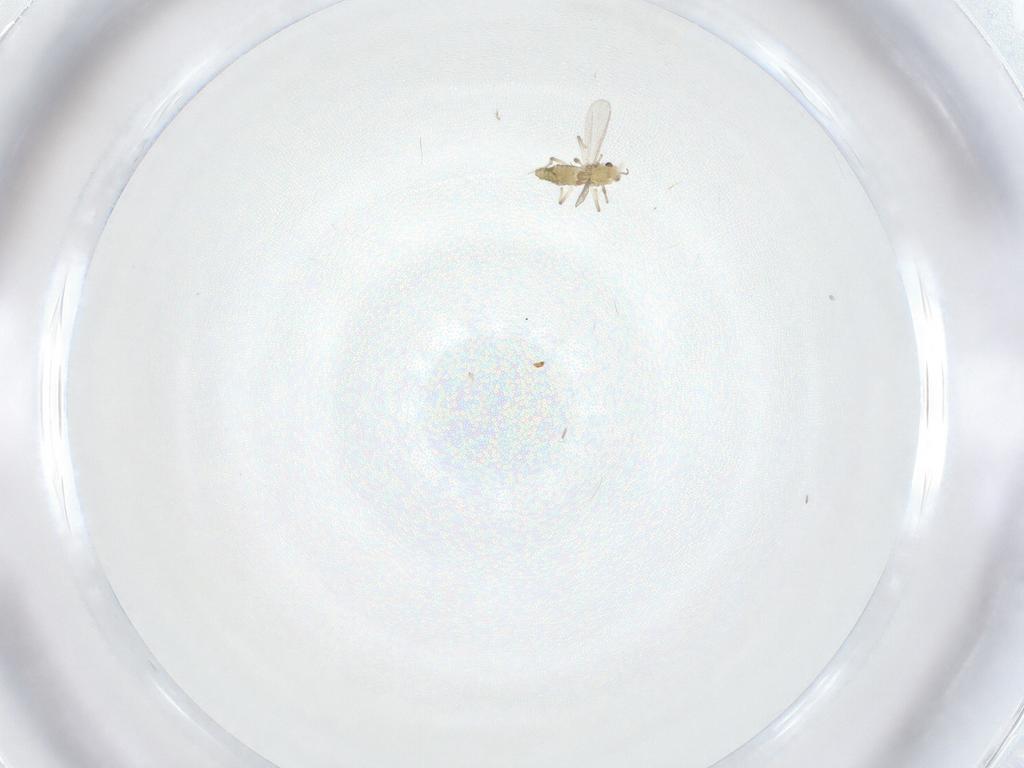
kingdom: Animalia
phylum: Arthropoda
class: Insecta
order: Diptera
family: Chironomidae
